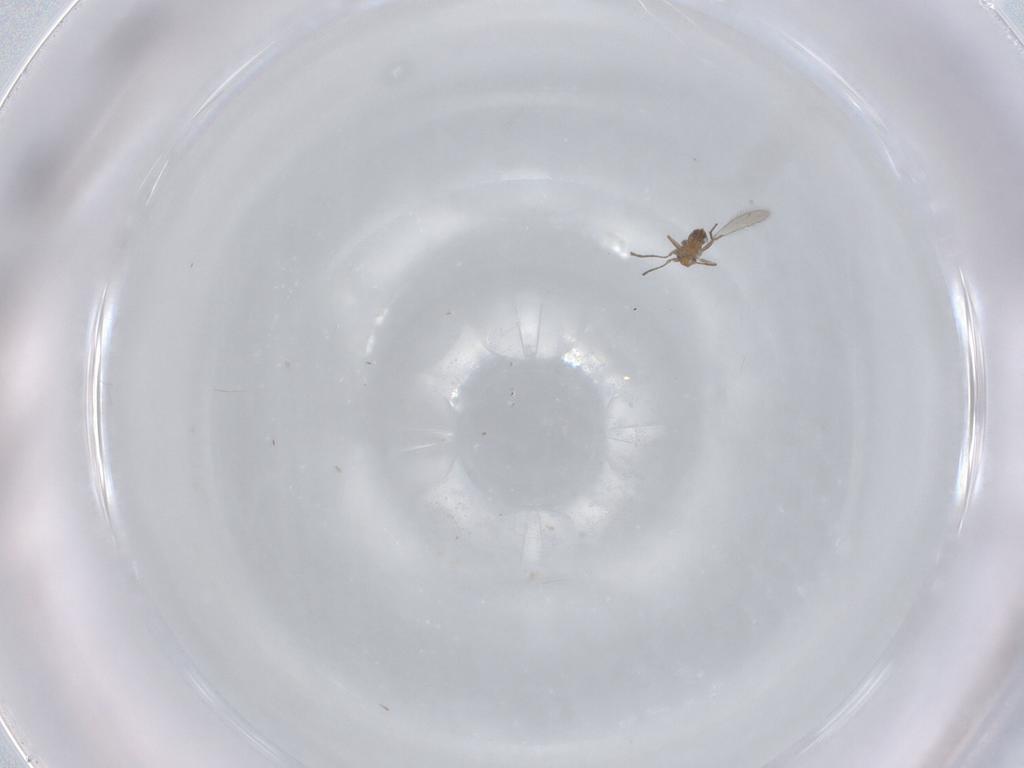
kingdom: Animalia
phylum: Arthropoda
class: Insecta
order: Hymenoptera
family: Mymaridae
